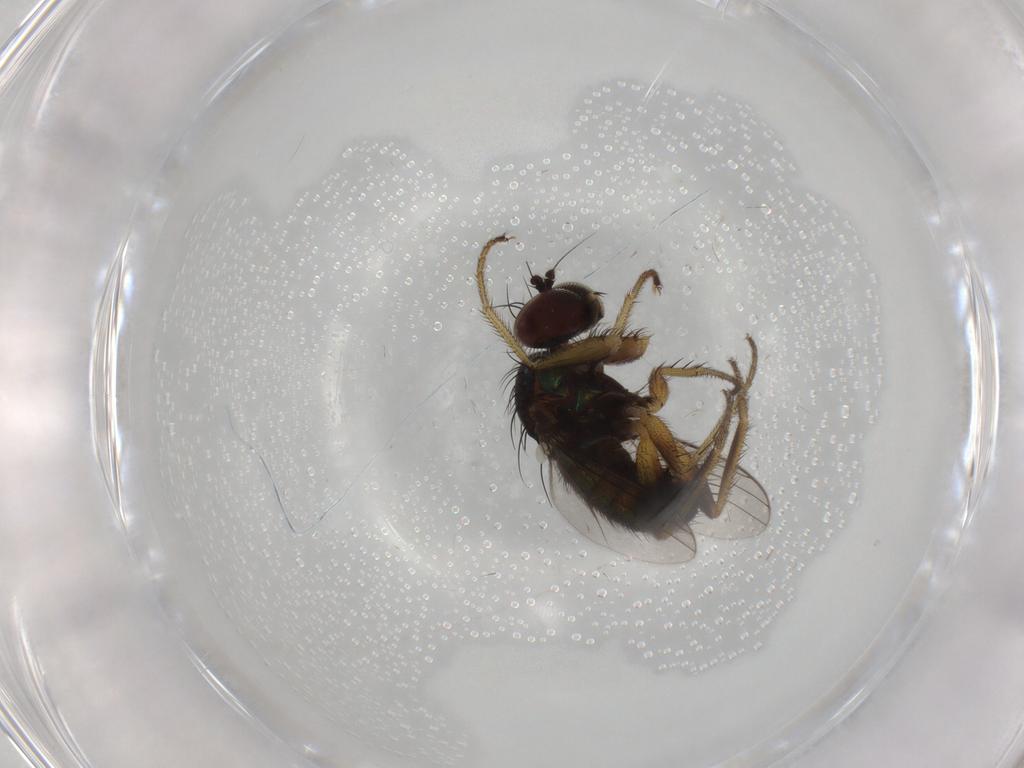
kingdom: Animalia
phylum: Arthropoda
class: Insecta
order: Diptera
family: Dolichopodidae
